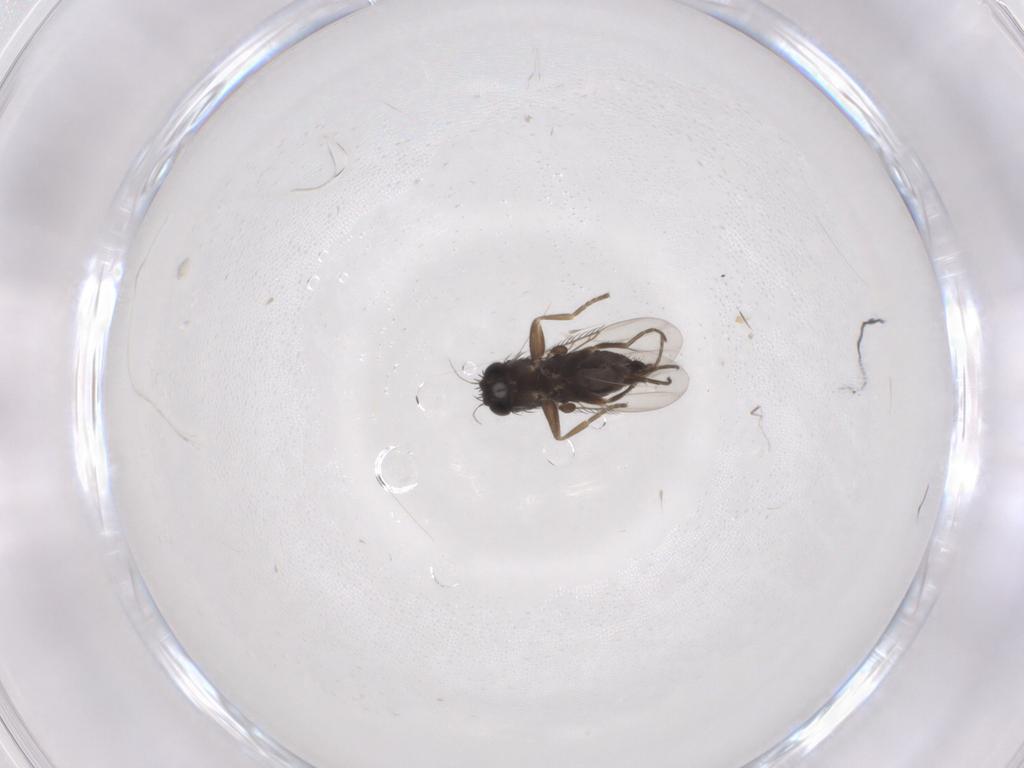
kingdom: Animalia
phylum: Arthropoda
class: Insecta
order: Diptera
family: Phoridae
